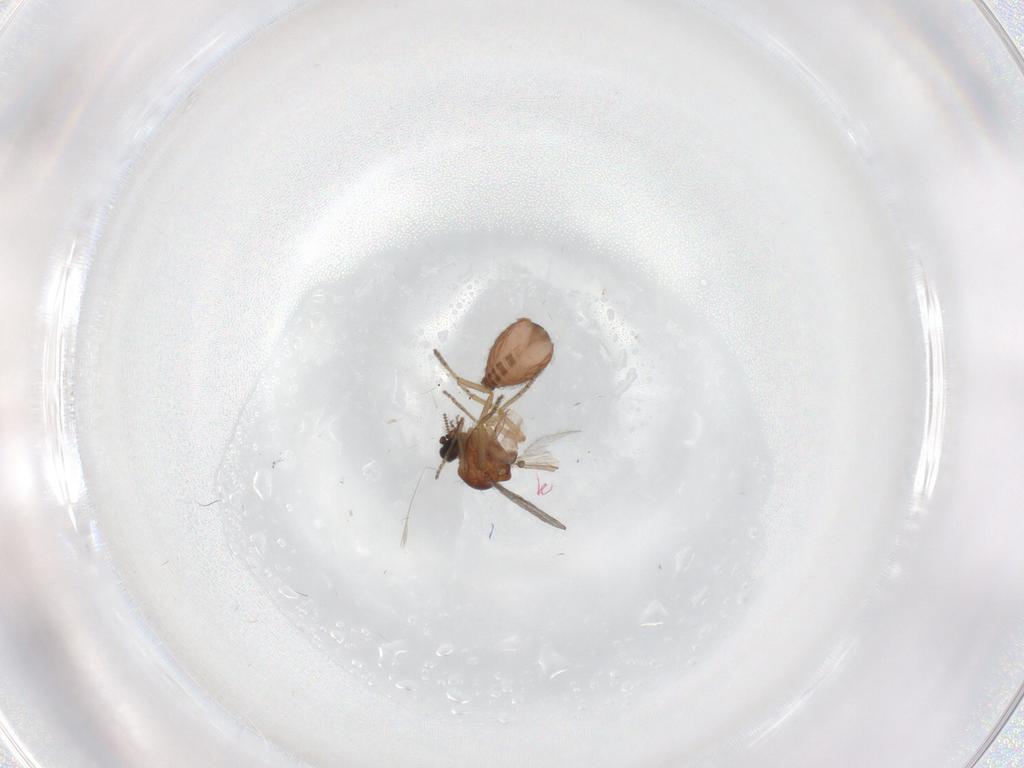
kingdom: Animalia
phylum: Arthropoda
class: Insecta
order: Diptera
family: Ceratopogonidae
